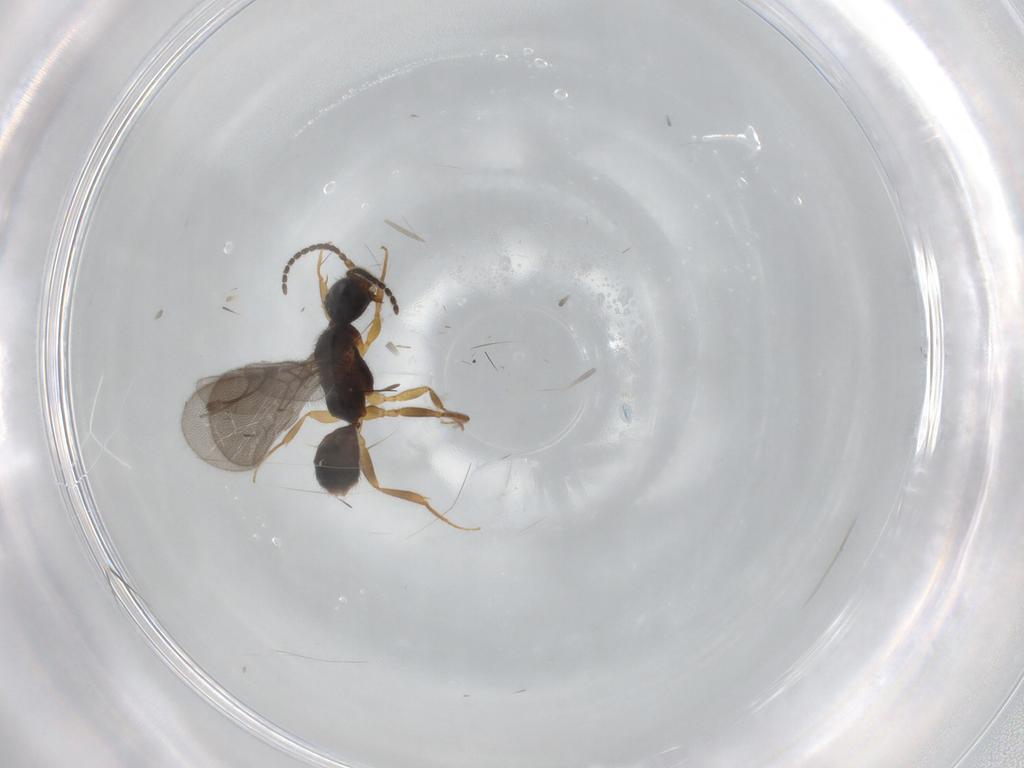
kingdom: Animalia
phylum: Arthropoda
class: Insecta
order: Hymenoptera
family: Bethylidae
